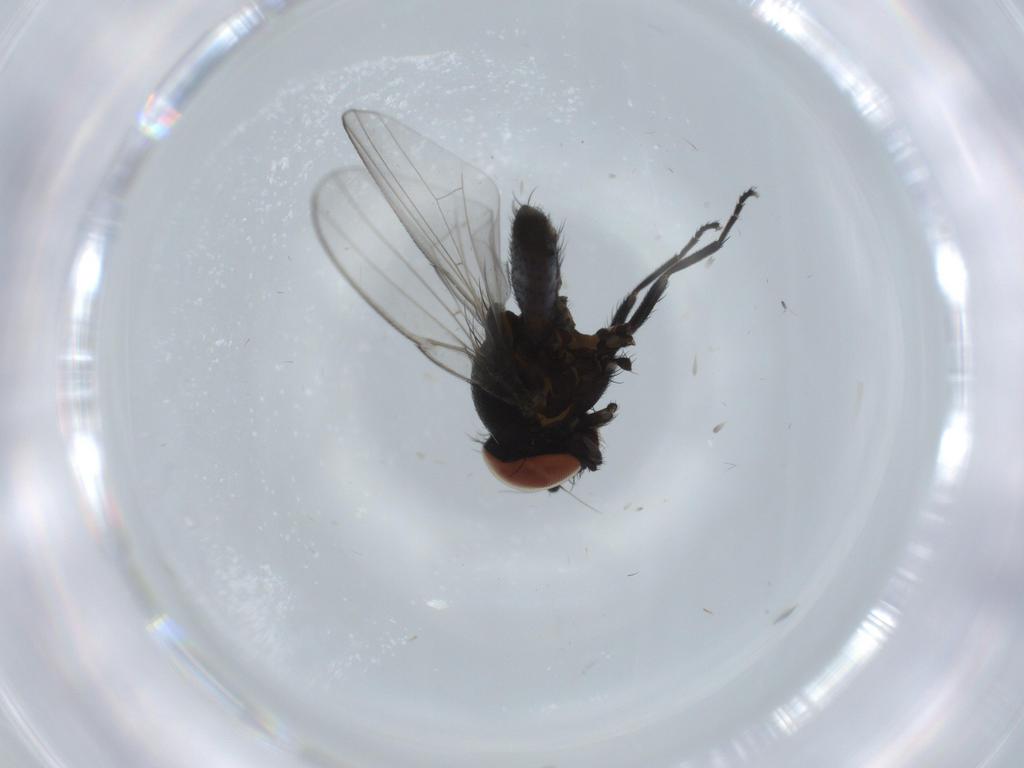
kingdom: Animalia
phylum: Arthropoda
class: Insecta
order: Diptera
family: Milichiidae
